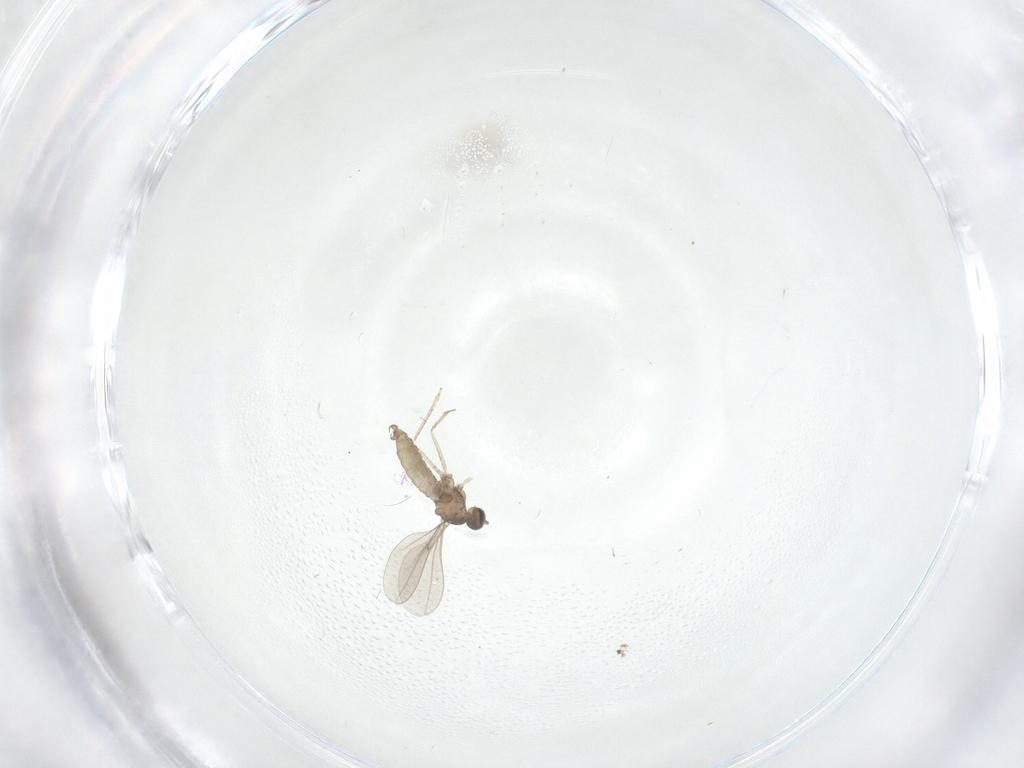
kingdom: Animalia
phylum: Arthropoda
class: Insecta
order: Diptera
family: Cecidomyiidae
